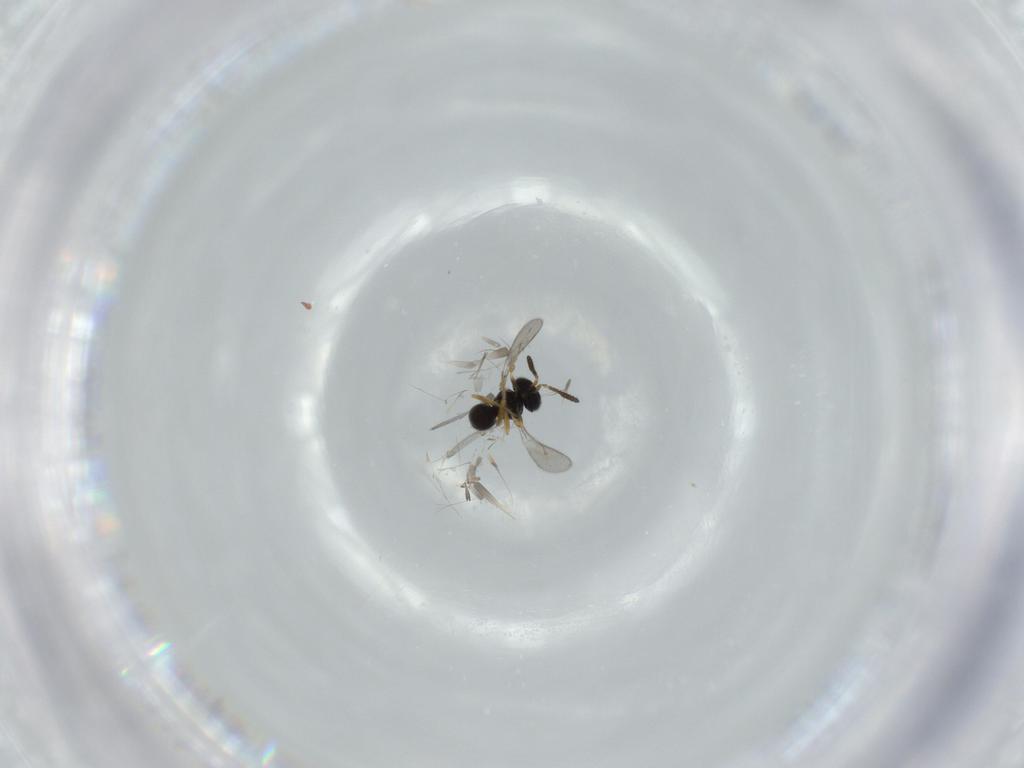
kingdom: Animalia
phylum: Arthropoda
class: Insecta
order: Hymenoptera
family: Scelionidae
